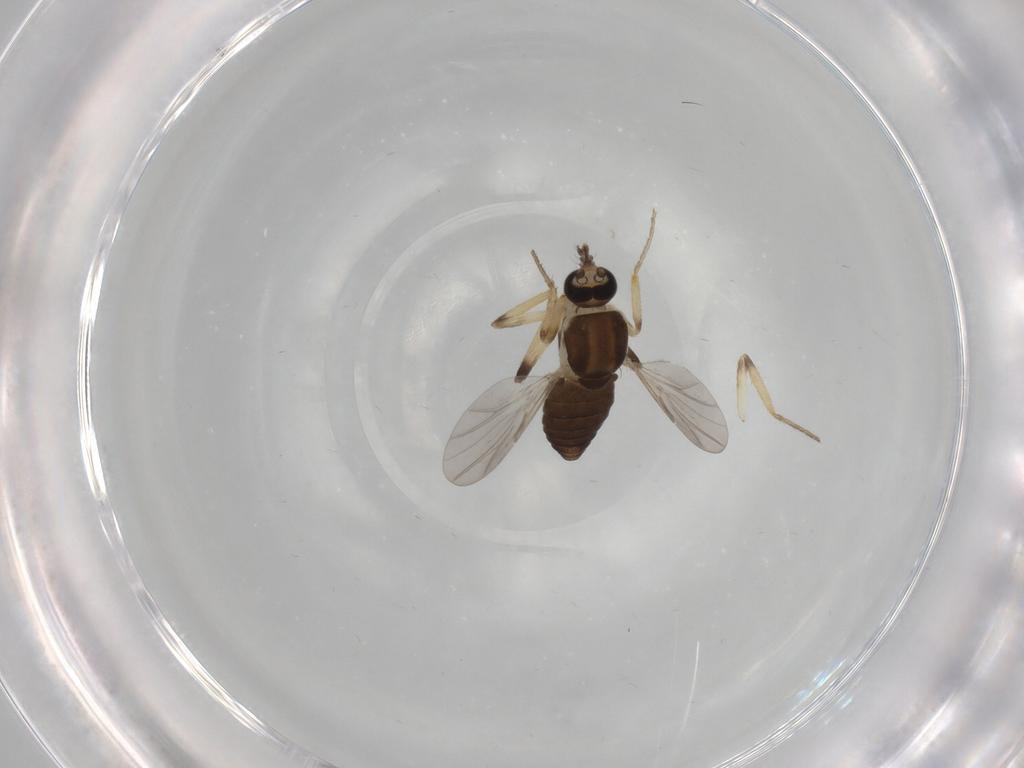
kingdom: Animalia
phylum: Arthropoda
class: Insecta
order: Diptera
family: Ceratopogonidae
